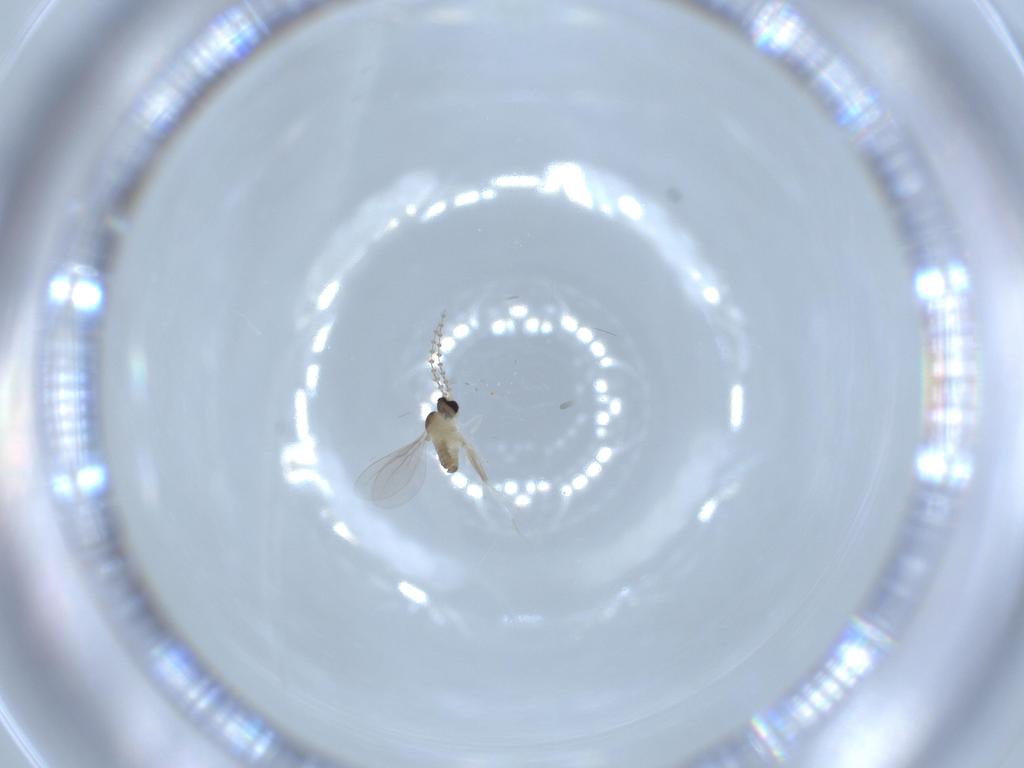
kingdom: Animalia
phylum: Arthropoda
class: Insecta
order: Diptera
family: Cecidomyiidae
